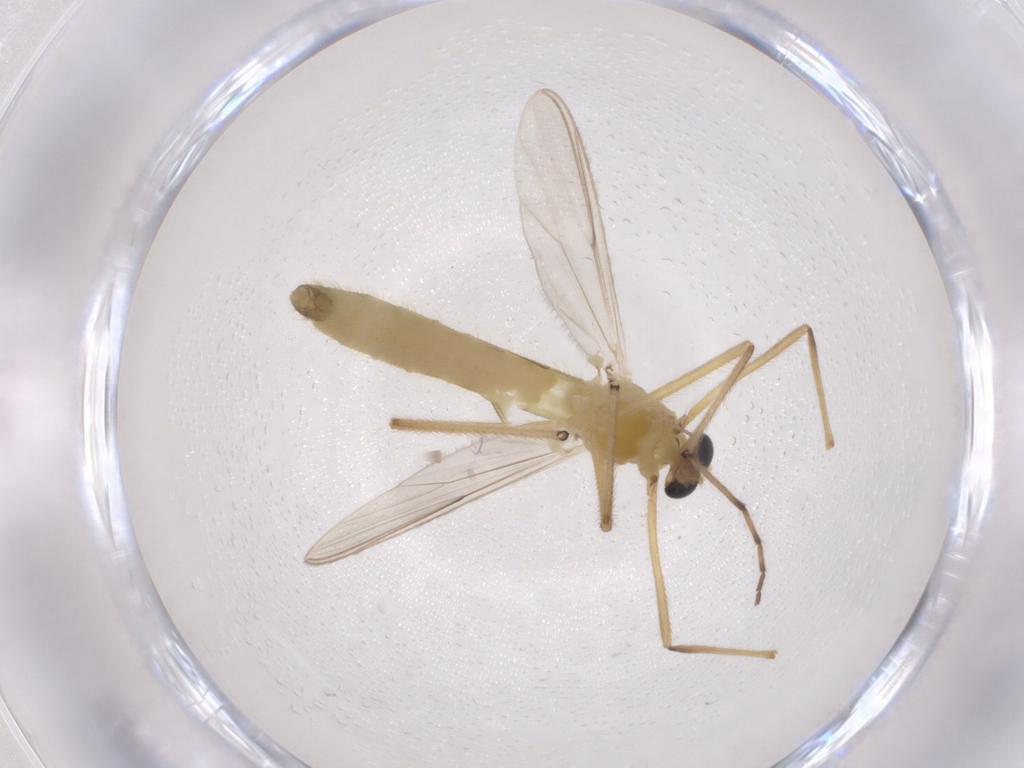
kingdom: Animalia
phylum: Arthropoda
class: Insecta
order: Diptera
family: Chironomidae
